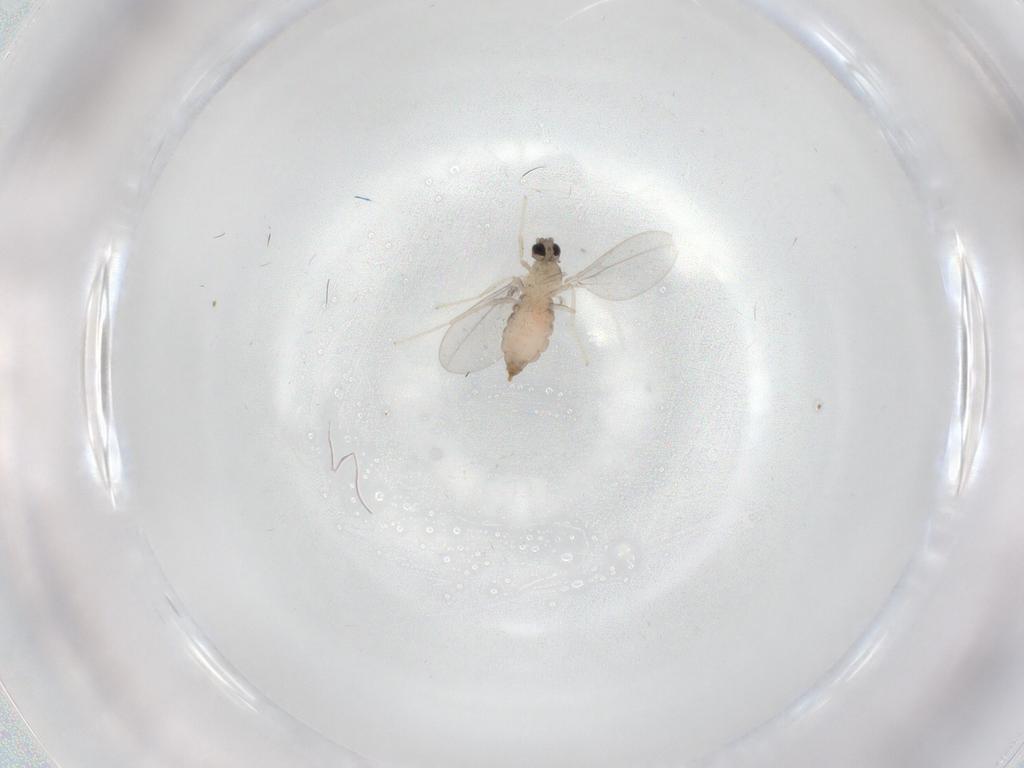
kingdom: Animalia
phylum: Arthropoda
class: Insecta
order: Diptera
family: Cecidomyiidae
